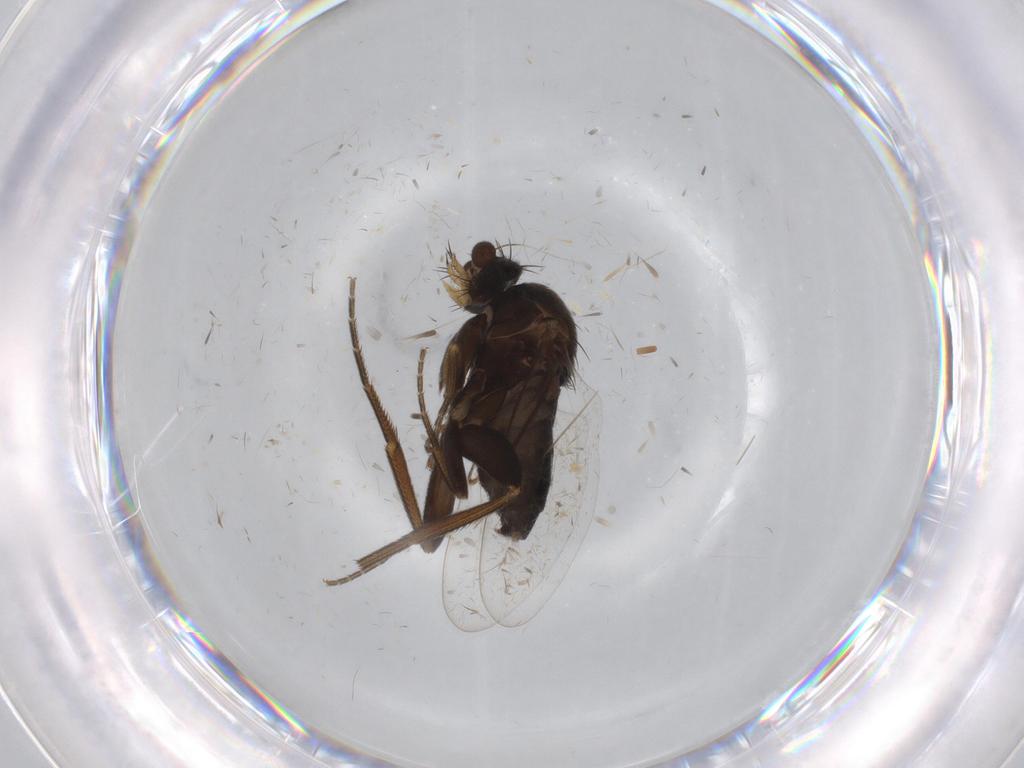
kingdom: Animalia
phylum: Arthropoda
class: Insecta
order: Diptera
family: Phoridae
